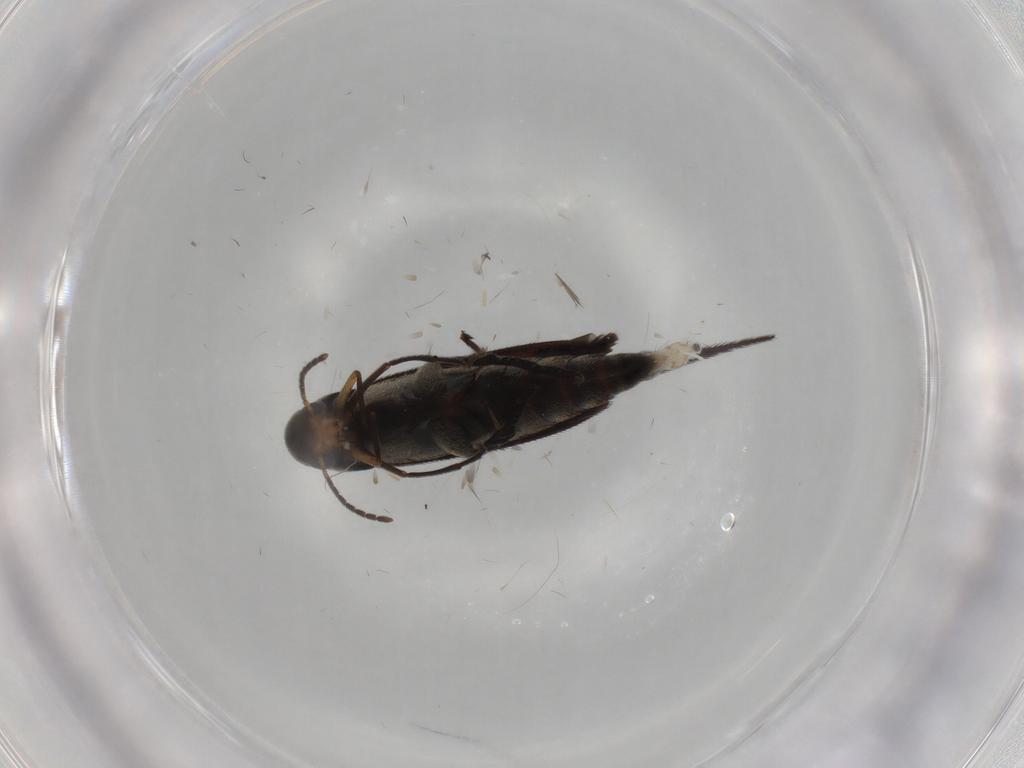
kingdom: Animalia
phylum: Arthropoda
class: Insecta
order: Coleoptera
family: Mordellidae
